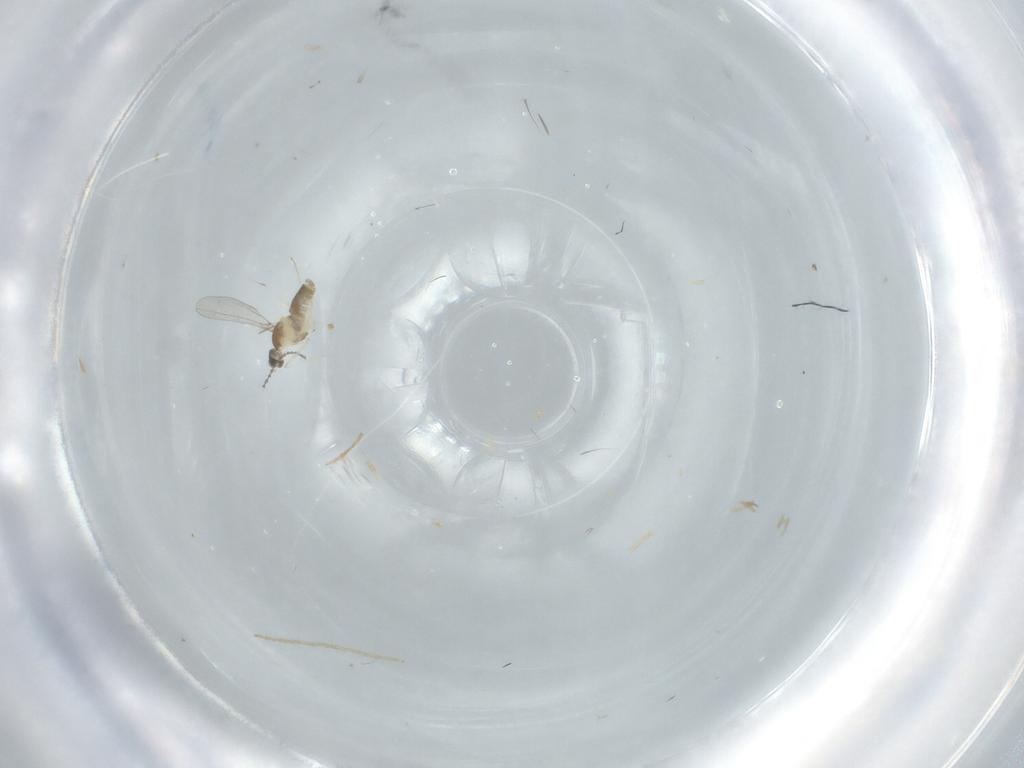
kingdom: Animalia
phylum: Arthropoda
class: Insecta
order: Diptera
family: Cecidomyiidae
